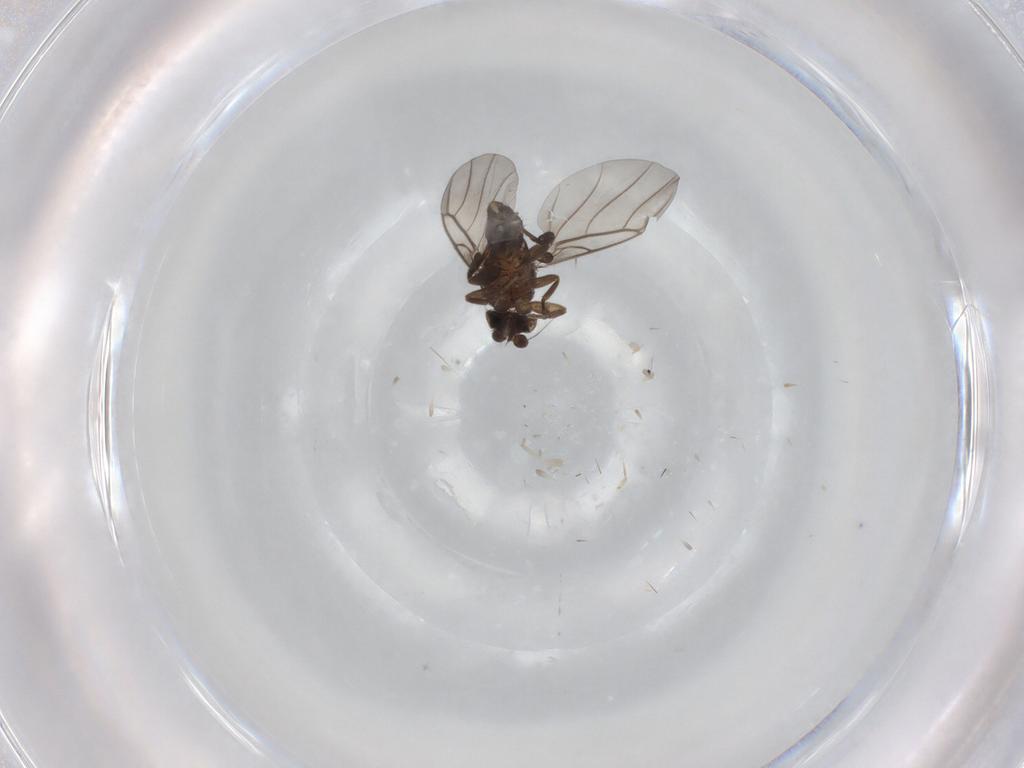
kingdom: Animalia
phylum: Arthropoda
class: Insecta
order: Diptera
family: Phoridae
